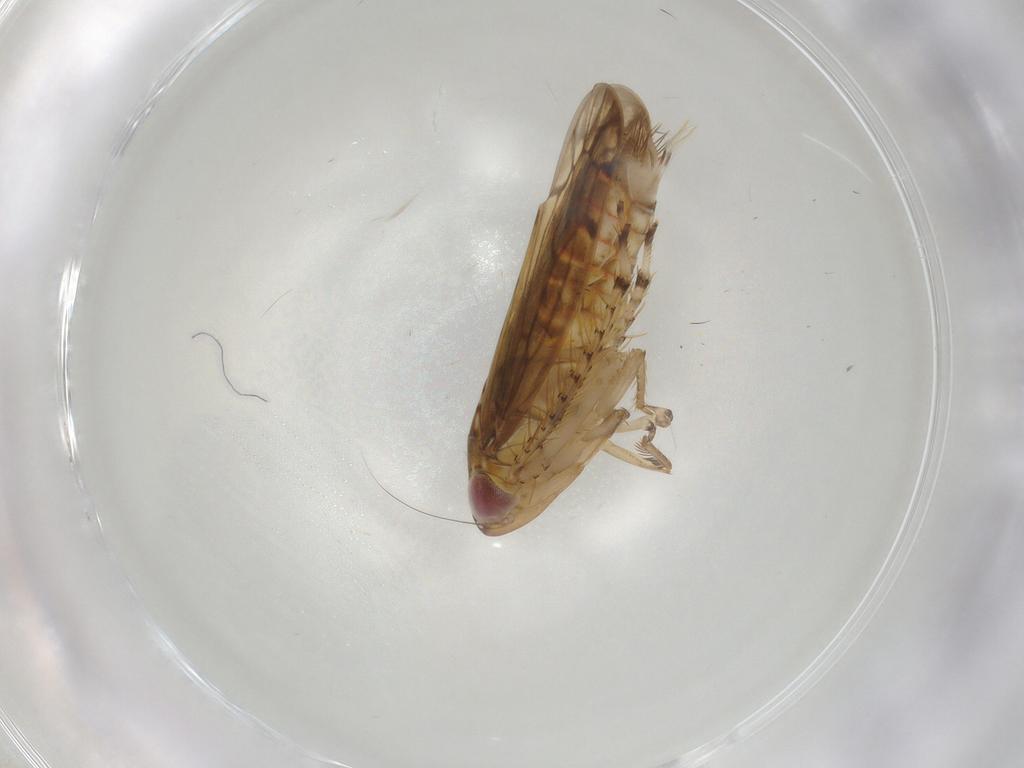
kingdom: Animalia
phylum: Arthropoda
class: Insecta
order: Hemiptera
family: Cicadellidae
